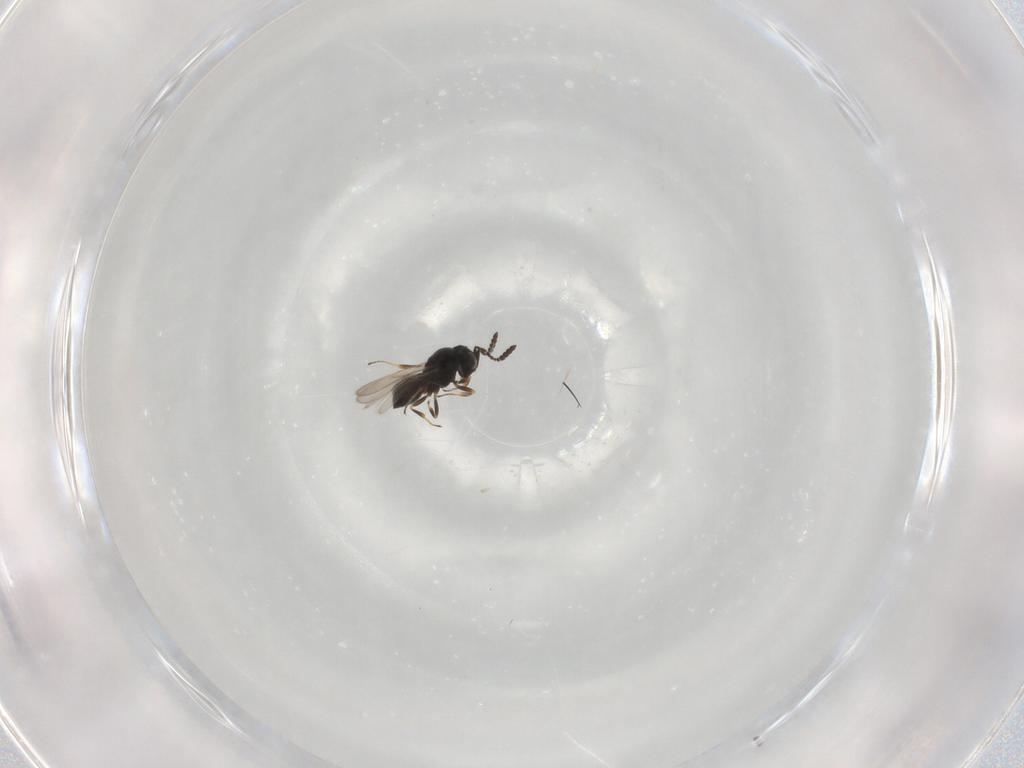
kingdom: Animalia
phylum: Arthropoda
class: Insecta
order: Hymenoptera
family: Scelionidae
